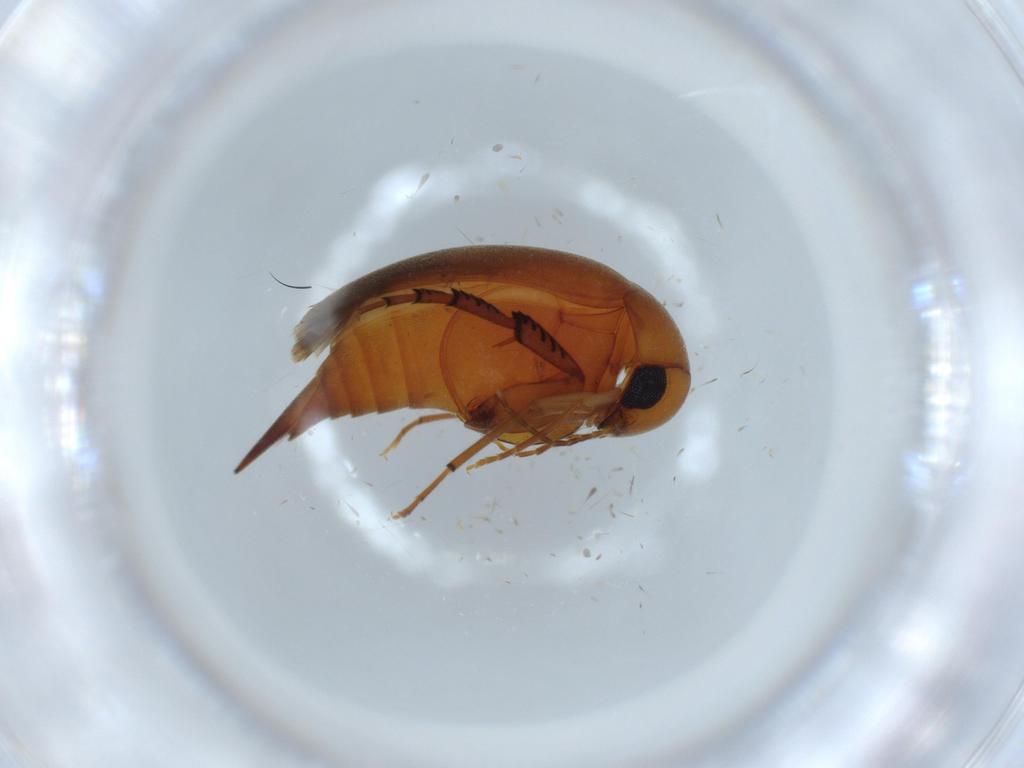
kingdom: Animalia
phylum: Arthropoda
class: Insecta
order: Coleoptera
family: Mordellidae
